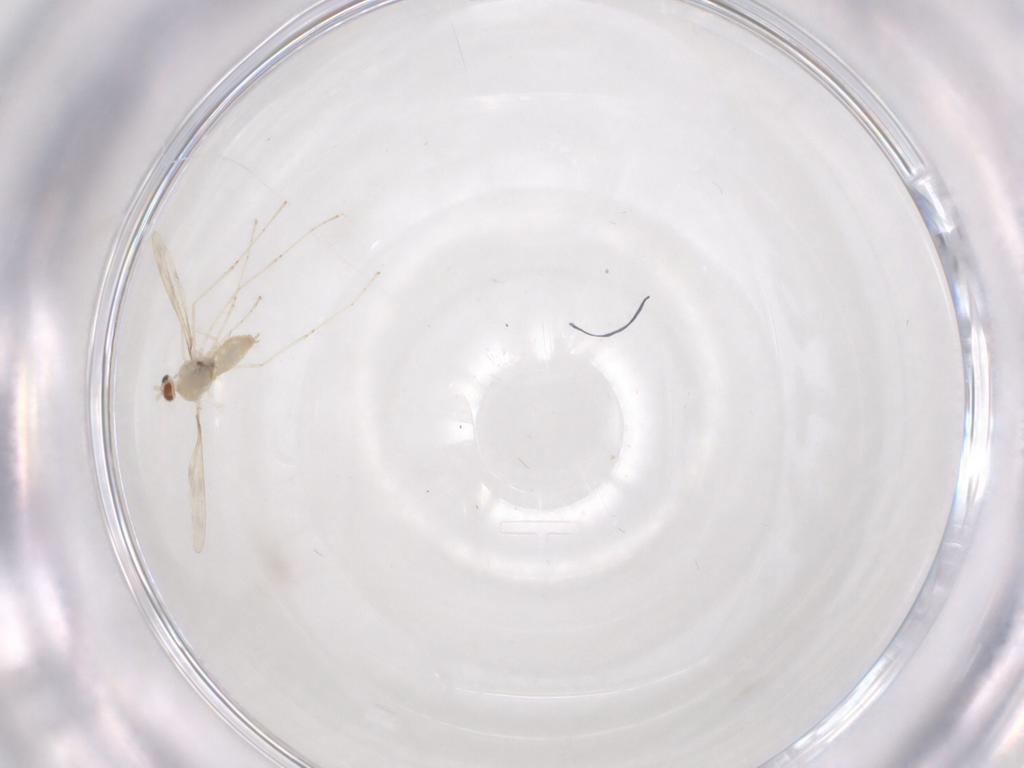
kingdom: Animalia
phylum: Arthropoda
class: Insecta
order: Diptera
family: Cecidomyiidae
